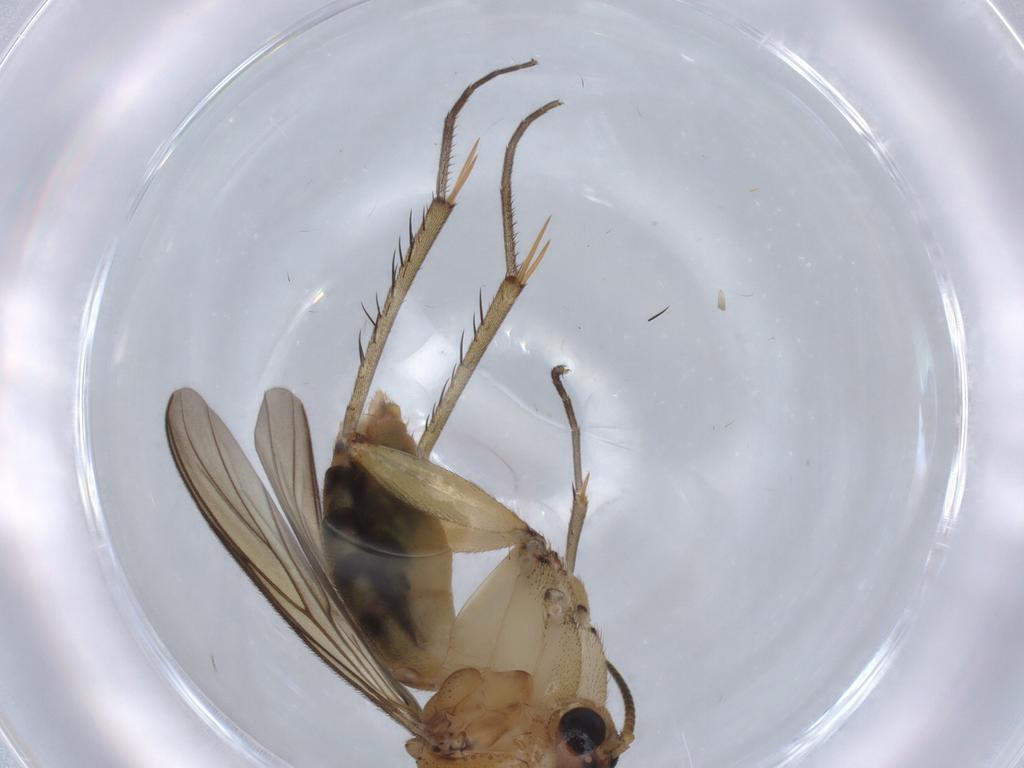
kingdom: Animalia
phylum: Arthropoda
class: Insecta
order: Diptera
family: Mycetophilidae
